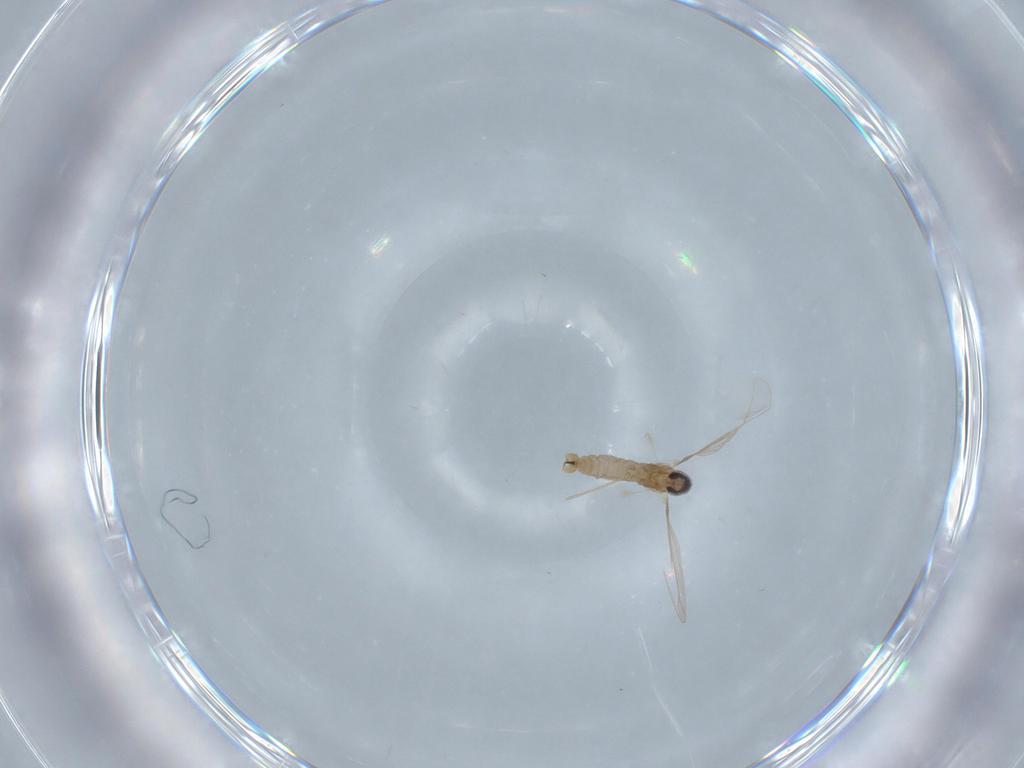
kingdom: Animalia
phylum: Arthropoda
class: Insecta
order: Diptera
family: Cecidomyiidae
